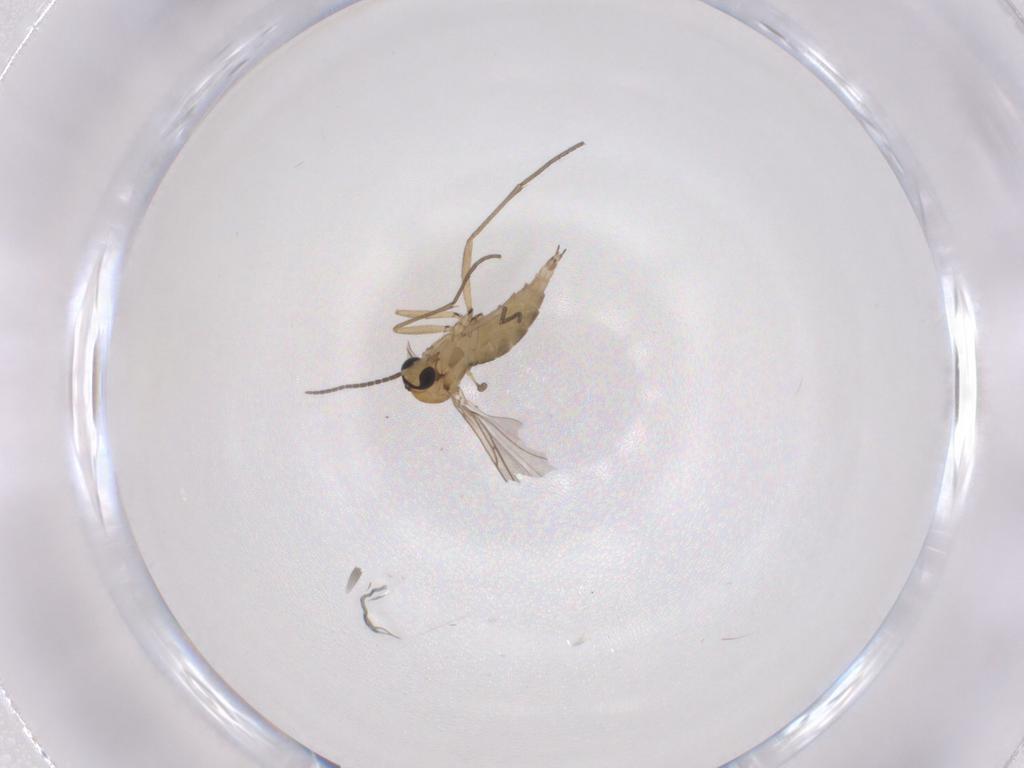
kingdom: Animalia
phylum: Arthropoda
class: Insecta
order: Diptera
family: Sciaridae
